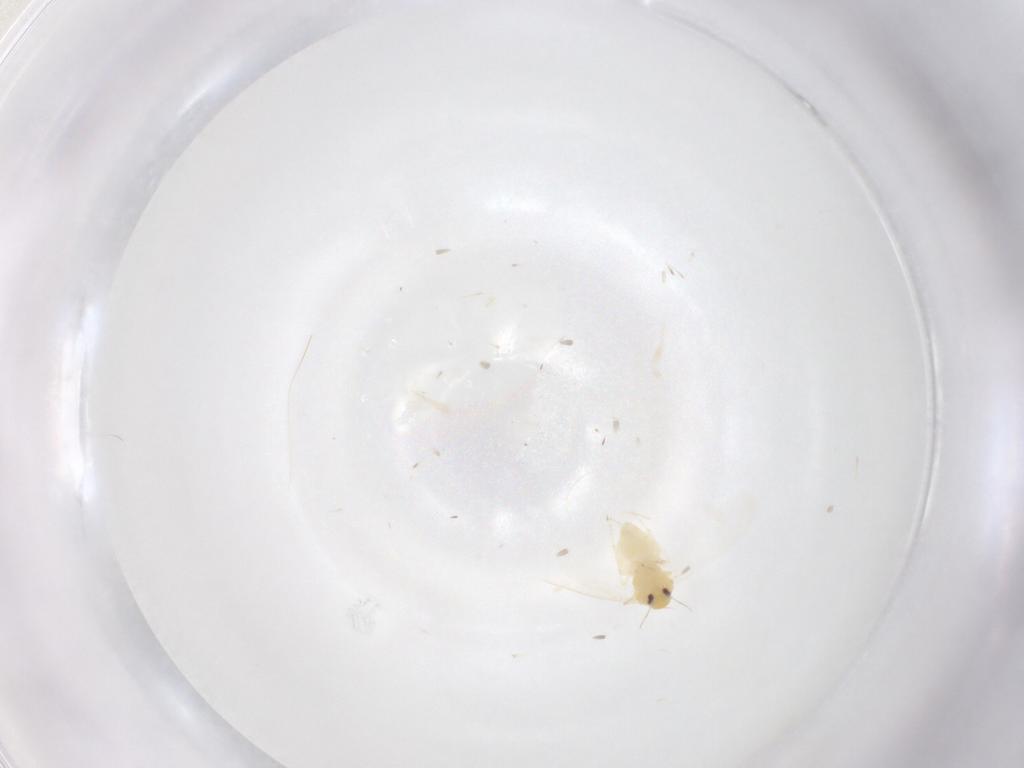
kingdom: Animalia
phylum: Arthropoda
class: Insecta
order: Hemiptera
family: Aleyrodidae
